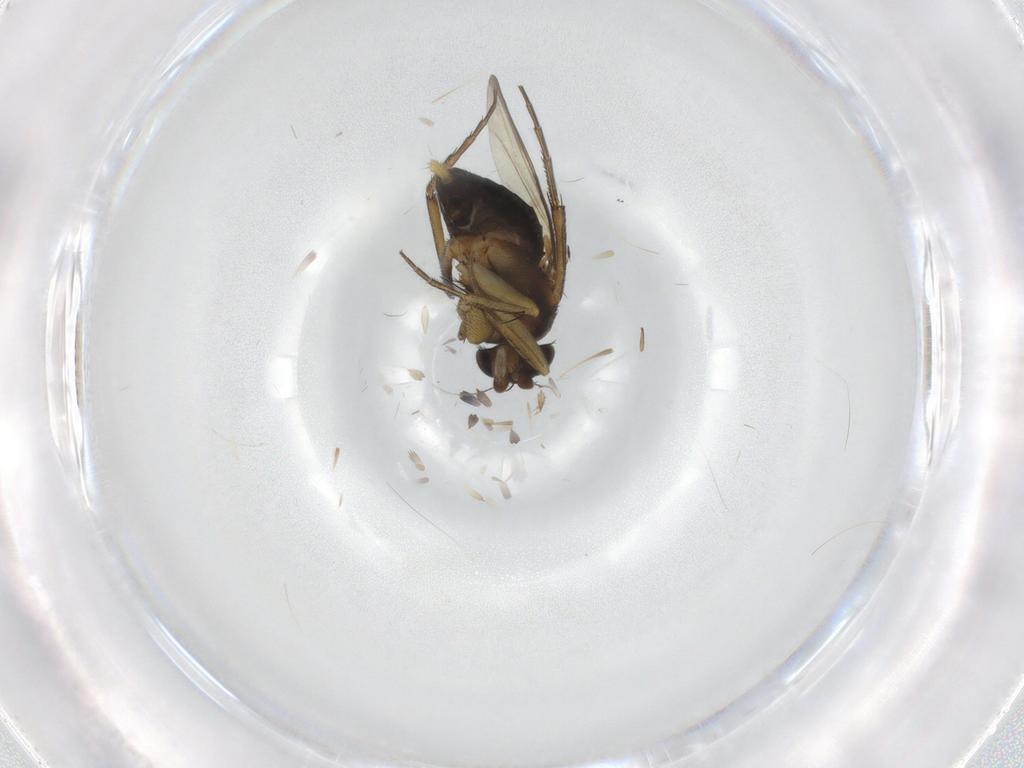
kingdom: Animalia
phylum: Arthropoda
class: Insecta
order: Diptera
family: Phoridae
